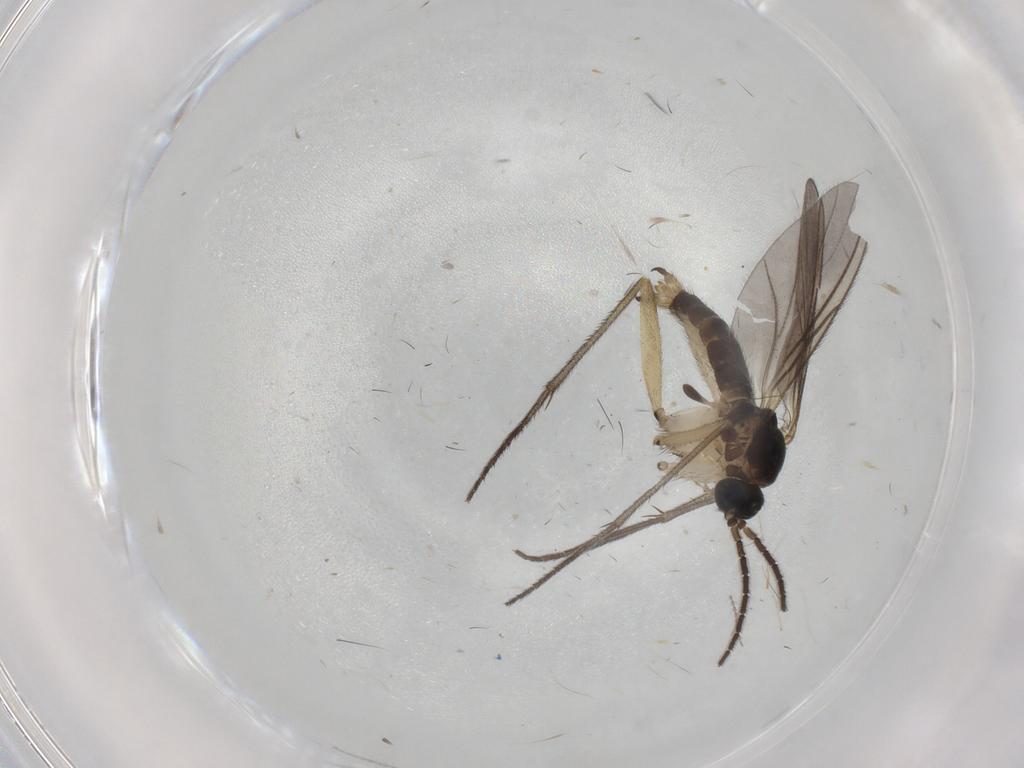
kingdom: Animalia
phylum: Arthropoda
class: Insecta
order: Diptera
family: Sciaridae
